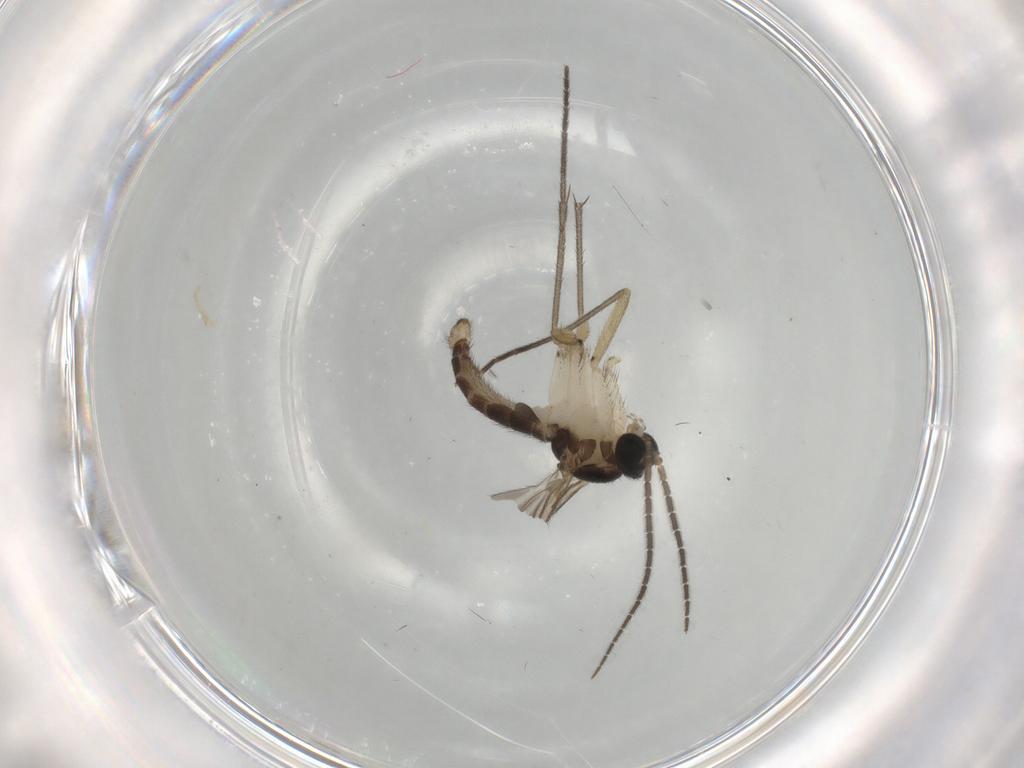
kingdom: Animalia
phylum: Arthropoda
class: Insecta
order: Diptera
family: Sciaridae
